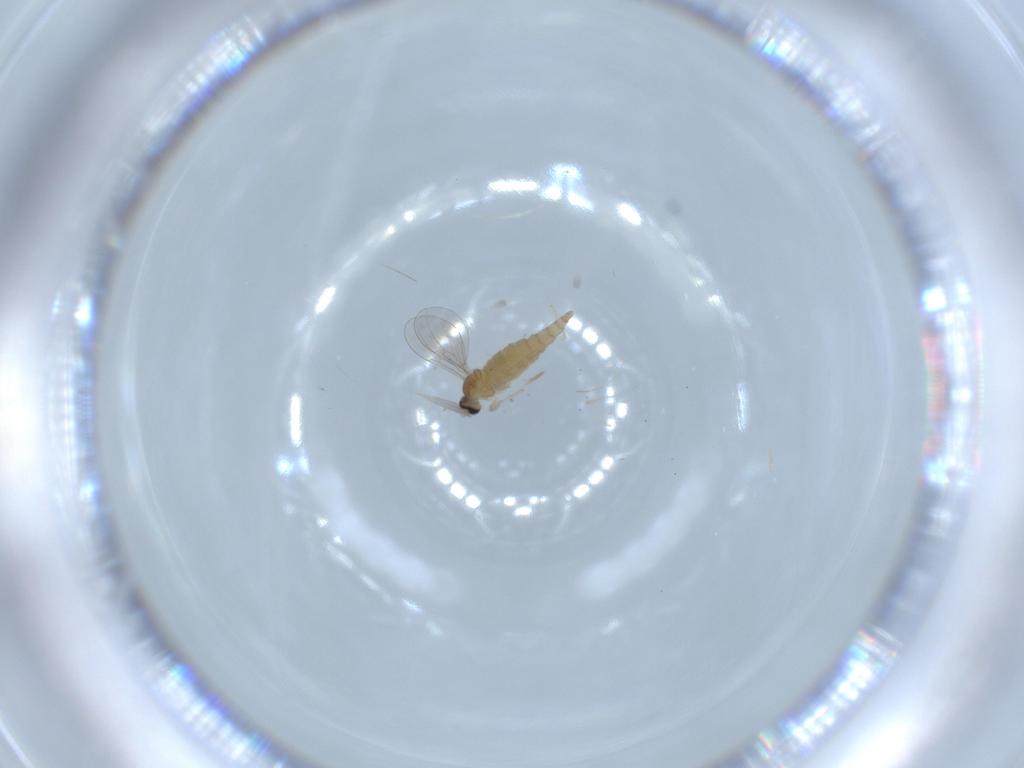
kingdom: Animalia
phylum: Arthropoda
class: Insecta
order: Diptera
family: Cecidomyiidae
